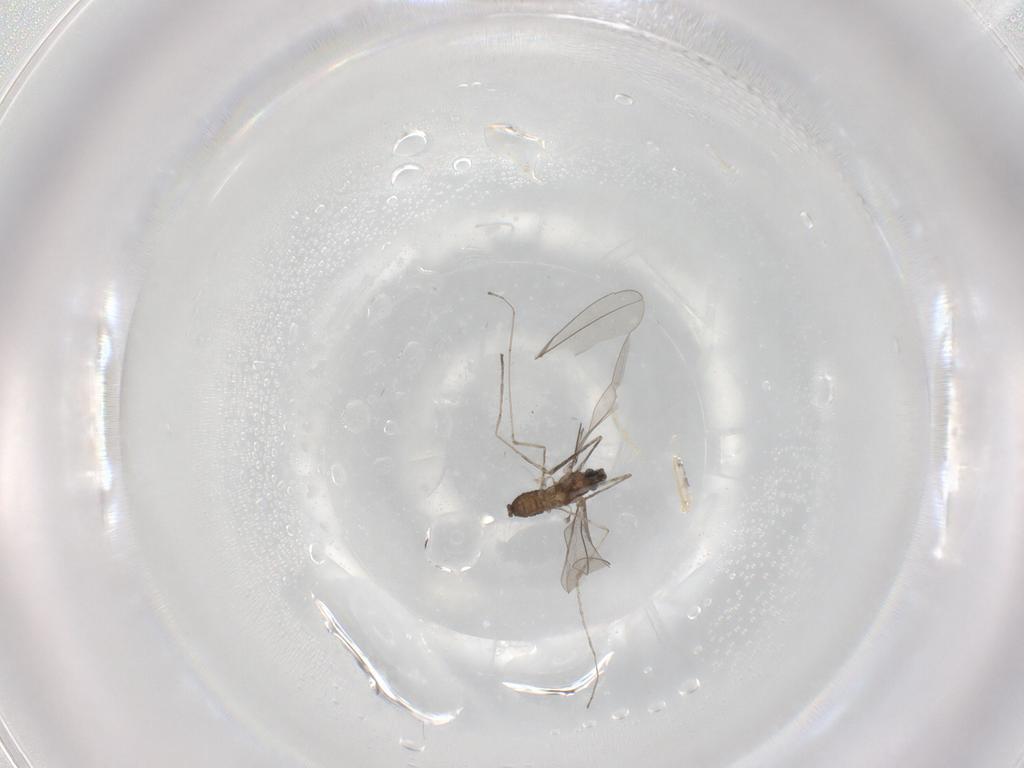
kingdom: Animalia
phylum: Arthropoda
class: Insecta
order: Diptera
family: Cecidomyiidae
